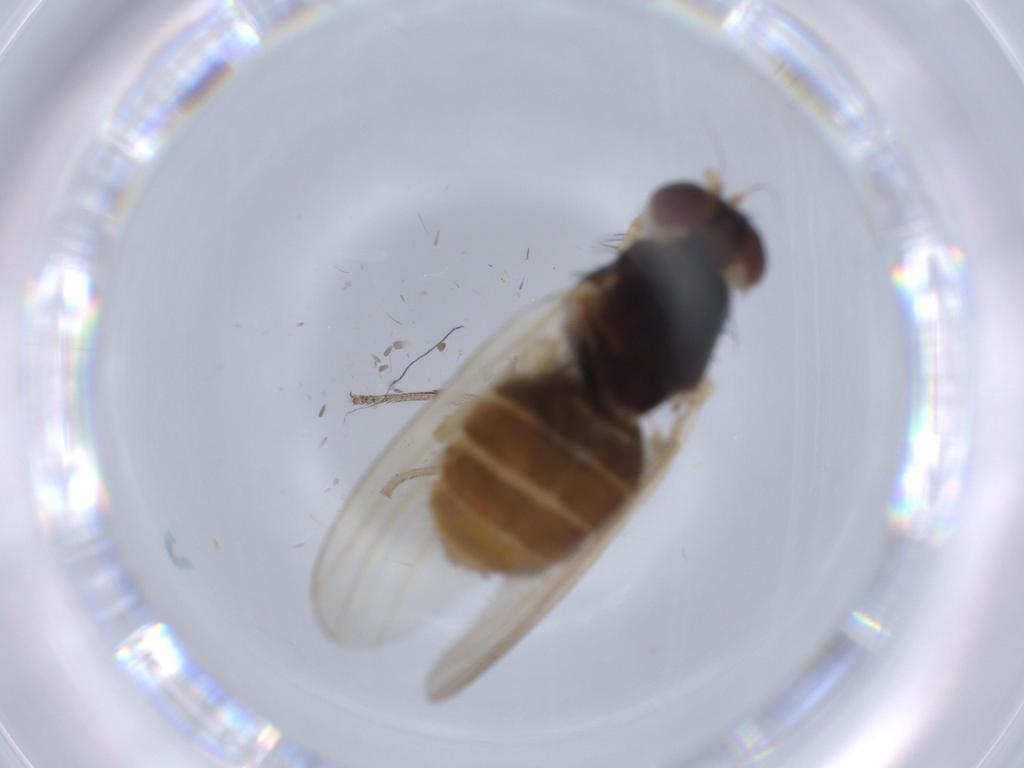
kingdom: Animalia
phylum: Arthropoda
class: Insecta
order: Diptera
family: Lauxaniidae
